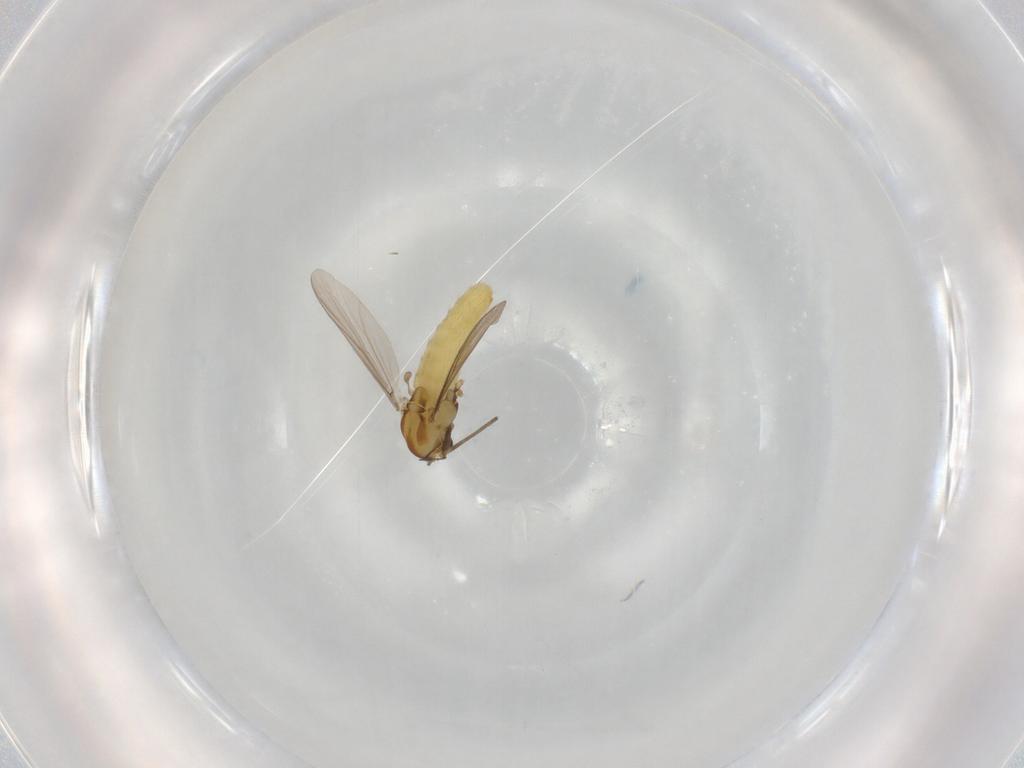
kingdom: Animalia
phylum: Arthropoda
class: Insecta
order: Diptera
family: Chironomidae
